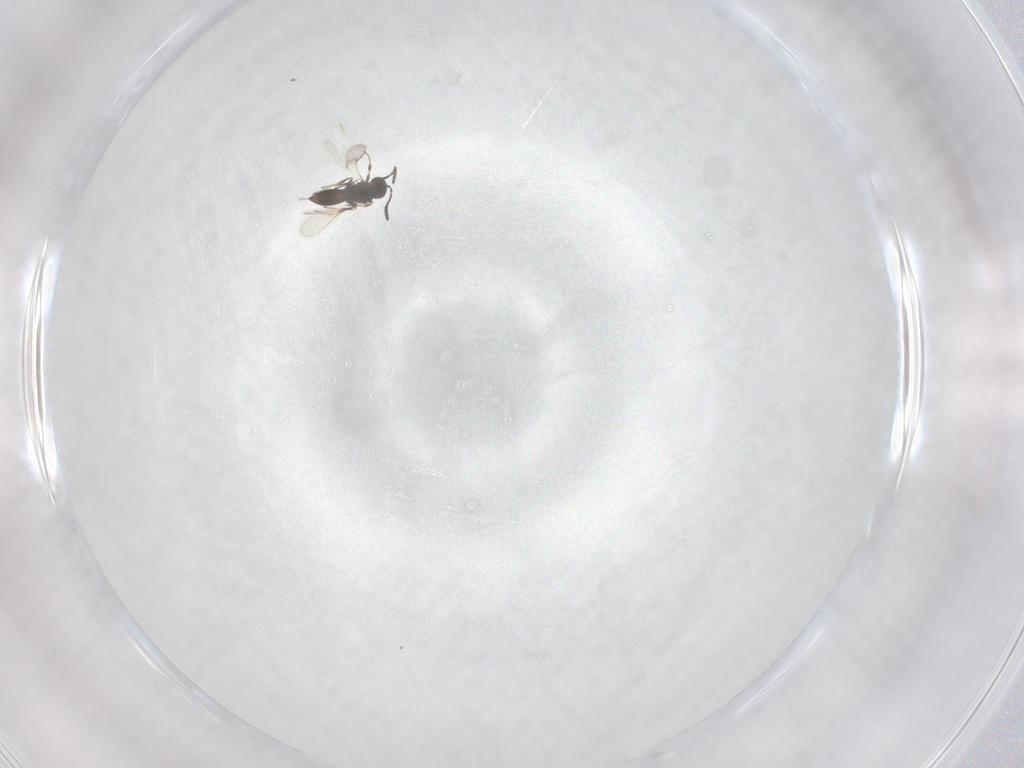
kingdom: Animalia
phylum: Arthropoda
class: Insecta
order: Hymenoptera
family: Scelionidae
